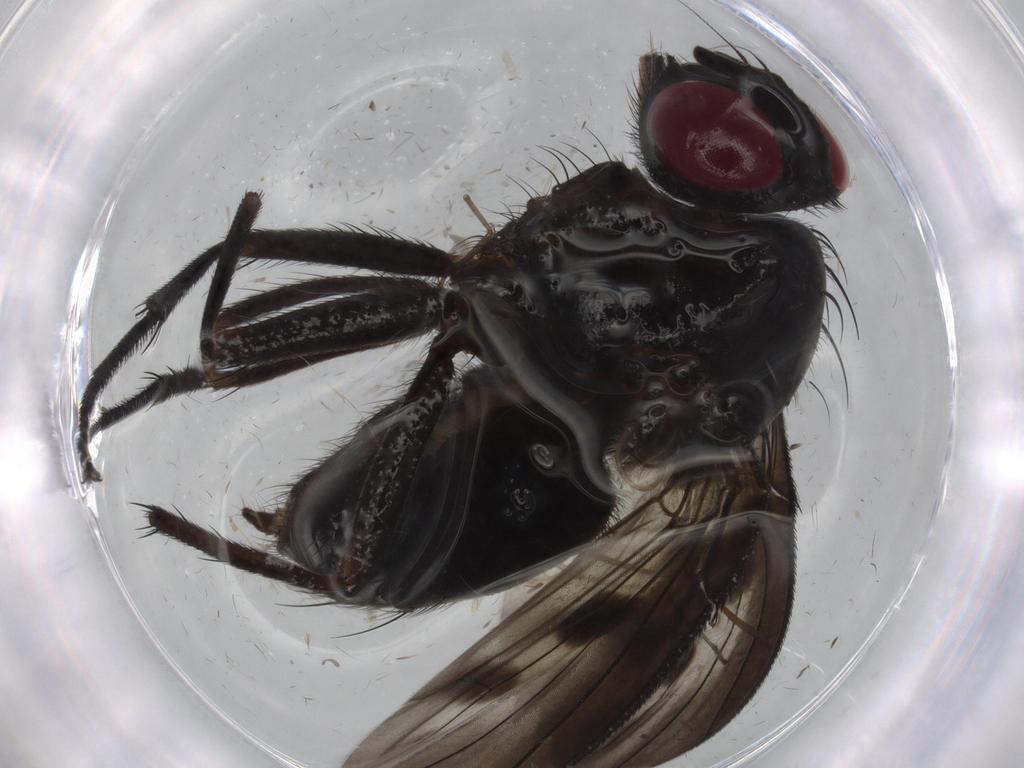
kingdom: Animalia
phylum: Arthropoda
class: Insecta
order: Diptera
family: Muscidae
